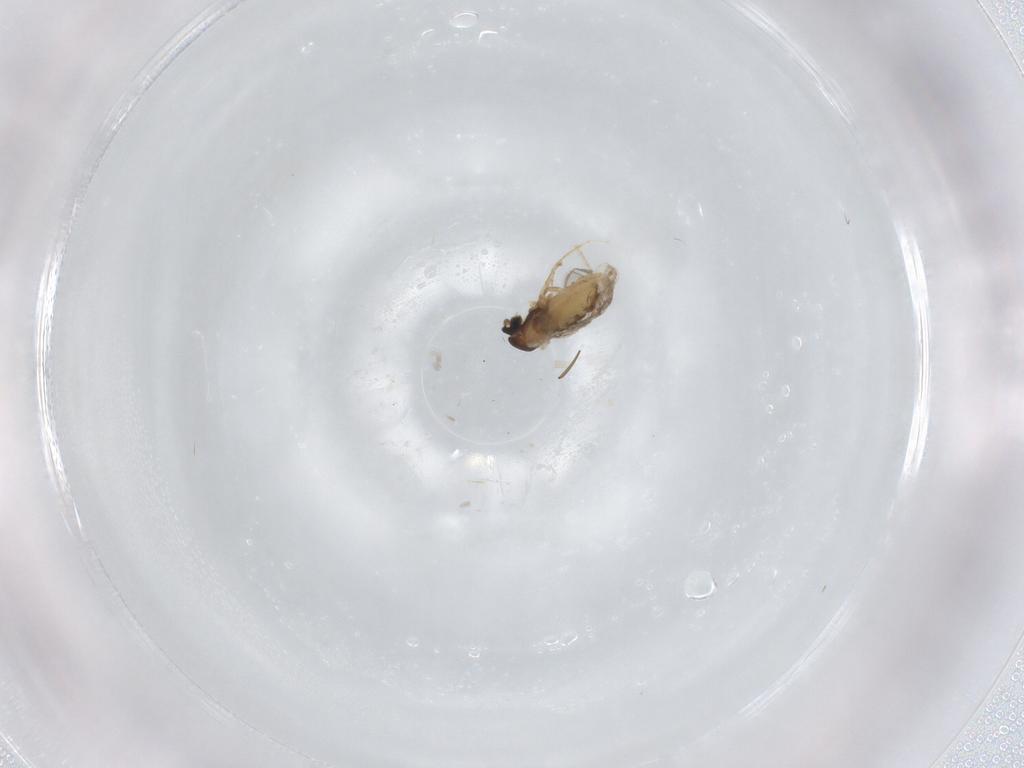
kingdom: Animalia
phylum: Arthropoda
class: Insecta
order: Diptera
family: Cecidomyiidae
